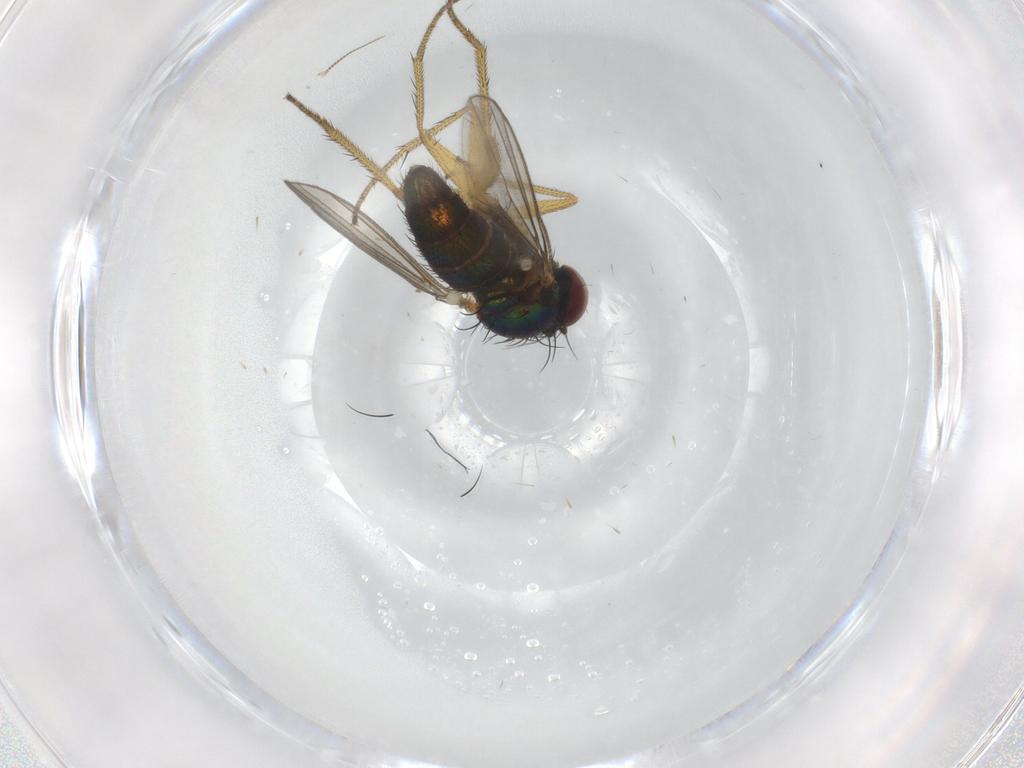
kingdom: Animalia
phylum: Arthropoda
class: Insecta
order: Diptera
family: Dolichopodidae
